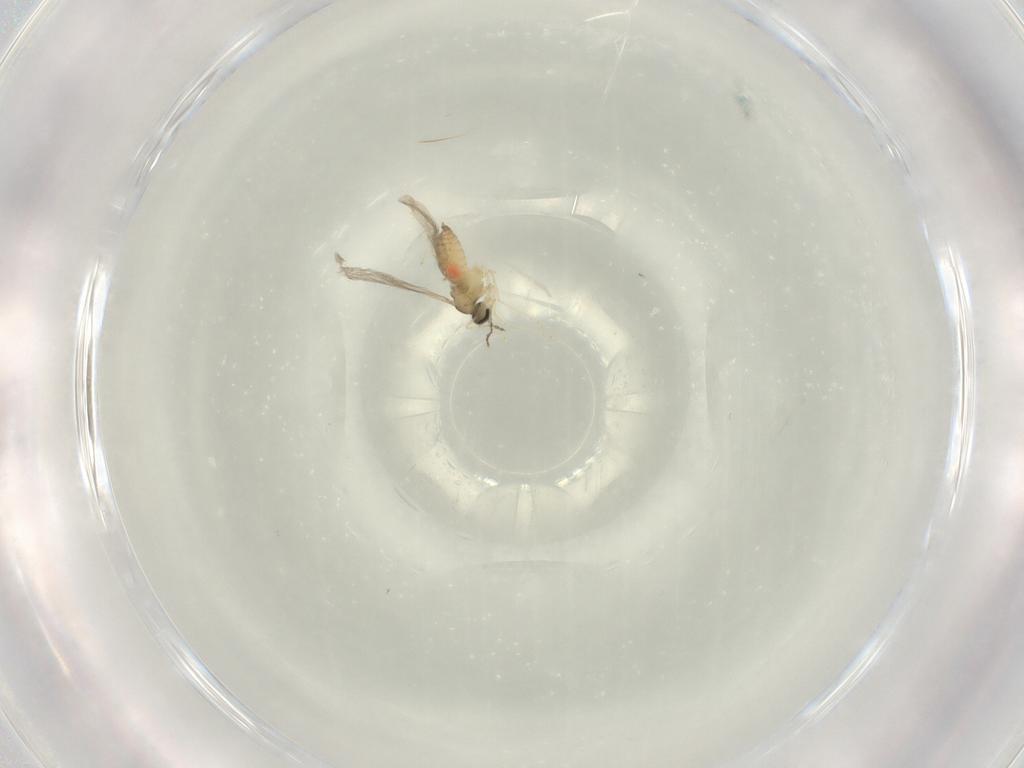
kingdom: Animalia
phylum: Arthropoda
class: Insecta
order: Diptera
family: Cecidomyiidae
